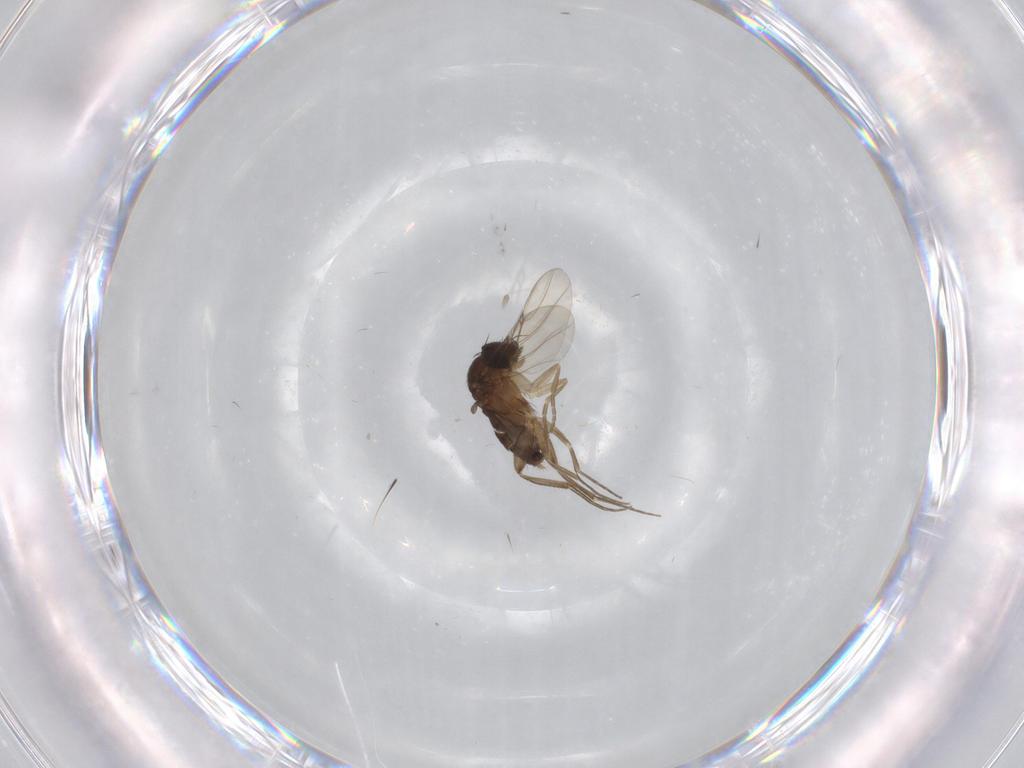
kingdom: Animalia
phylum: Arthropoda
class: Insecta
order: Diptera
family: Phoridae
